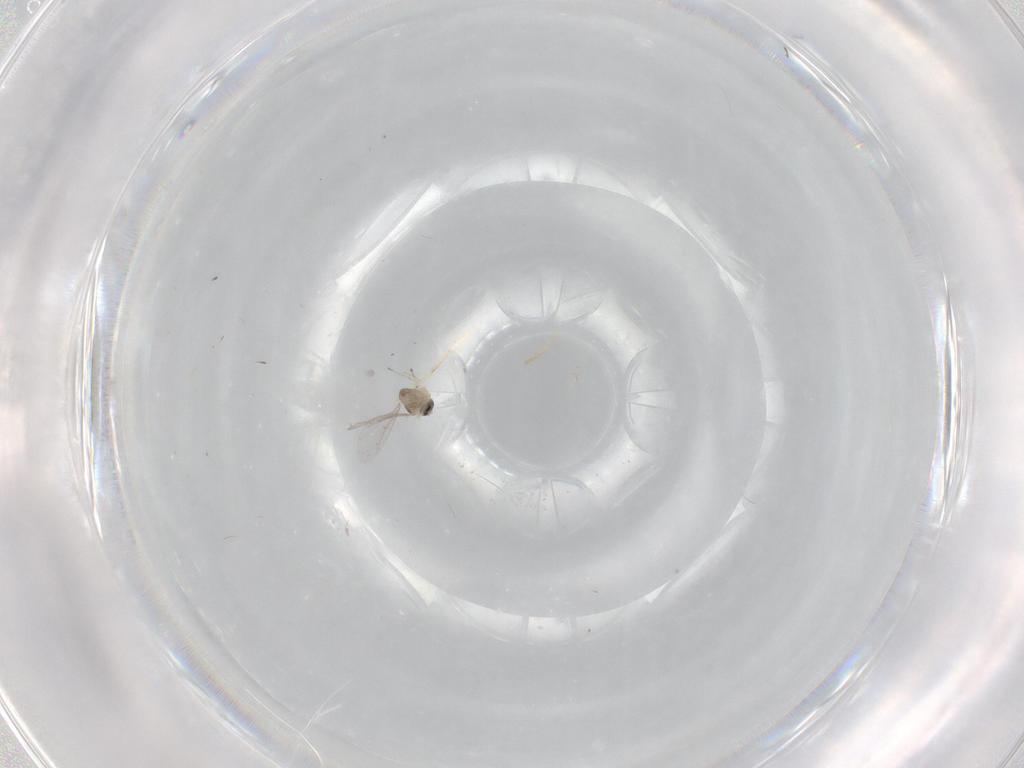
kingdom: Animalia
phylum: Arthropoda
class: Insecta
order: Diptera
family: Cecidomyiidae
